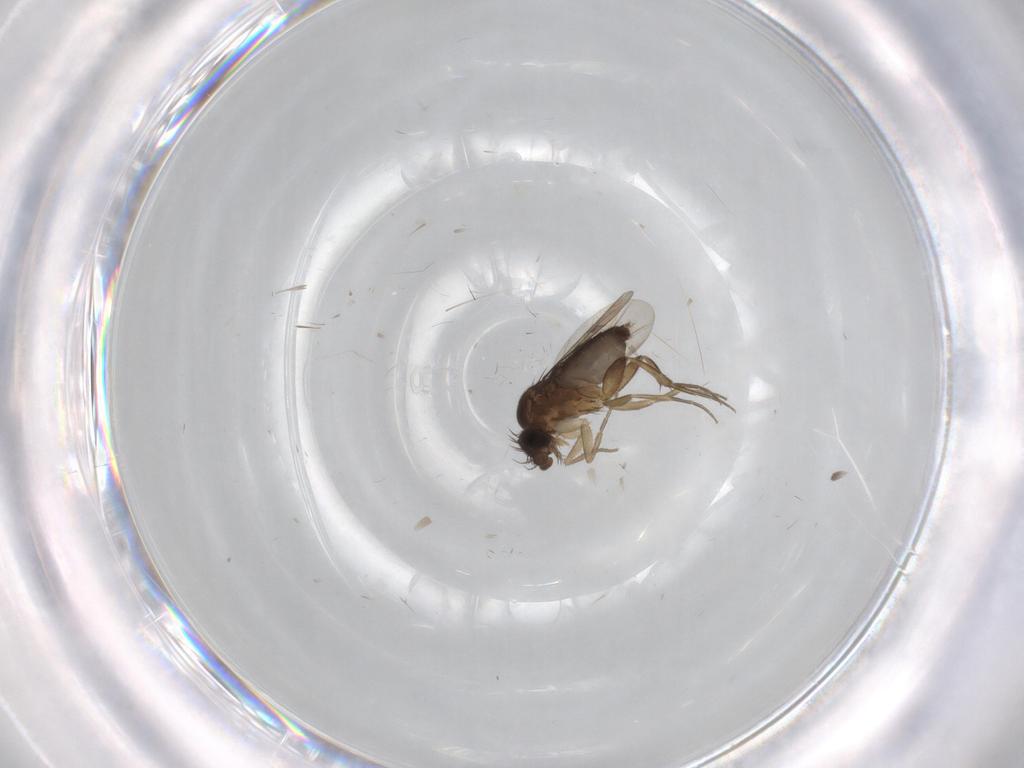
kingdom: Animalia
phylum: Arthropoda
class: Insecta
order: Diptera
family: Phoridae
